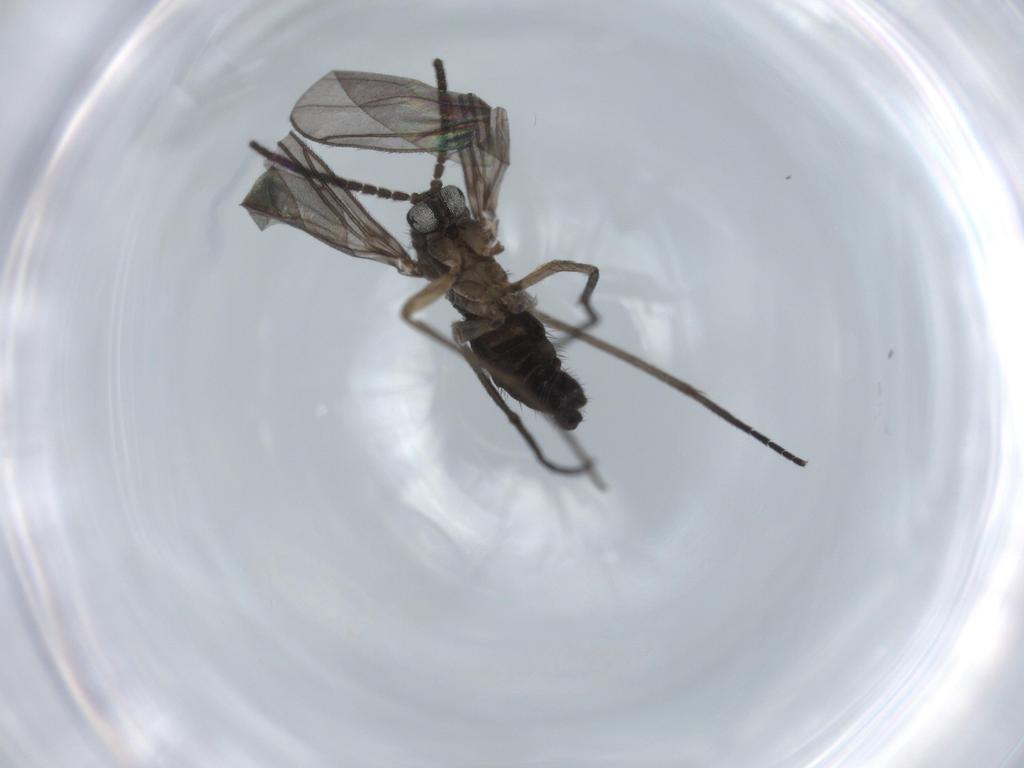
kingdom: Animalia
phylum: Arthropoda
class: Insecta
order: Diptera
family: Sciaridae
